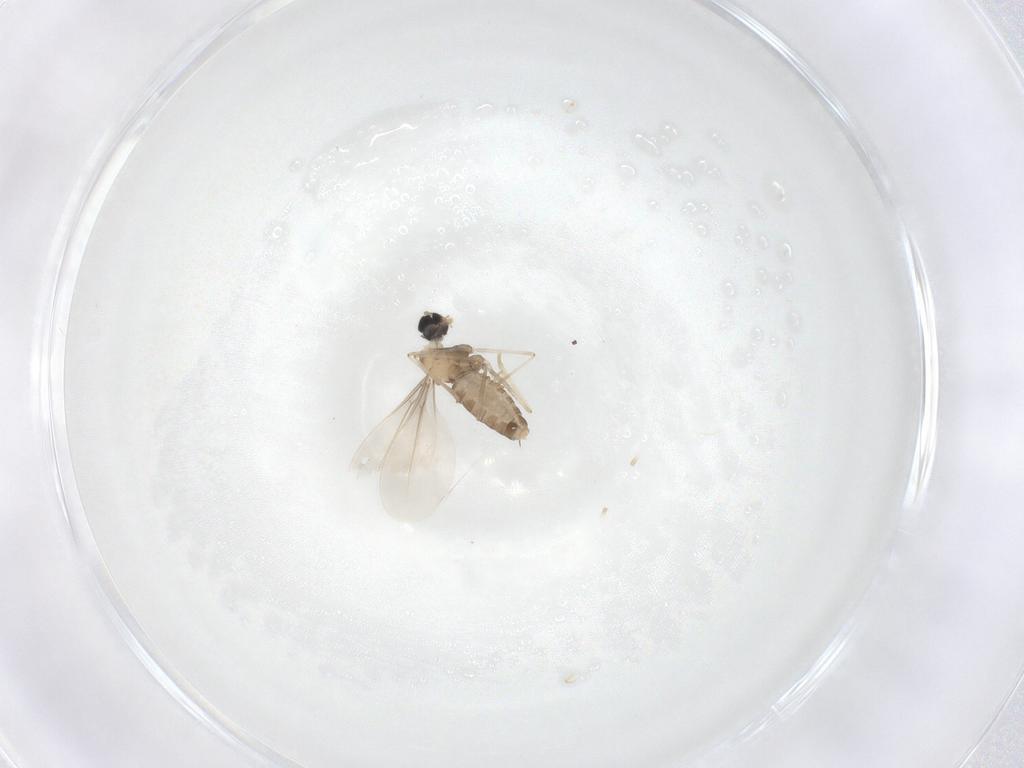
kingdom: Animalia
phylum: Arthropoda
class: Insecta
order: Diptera
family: Cecidomyiidae
